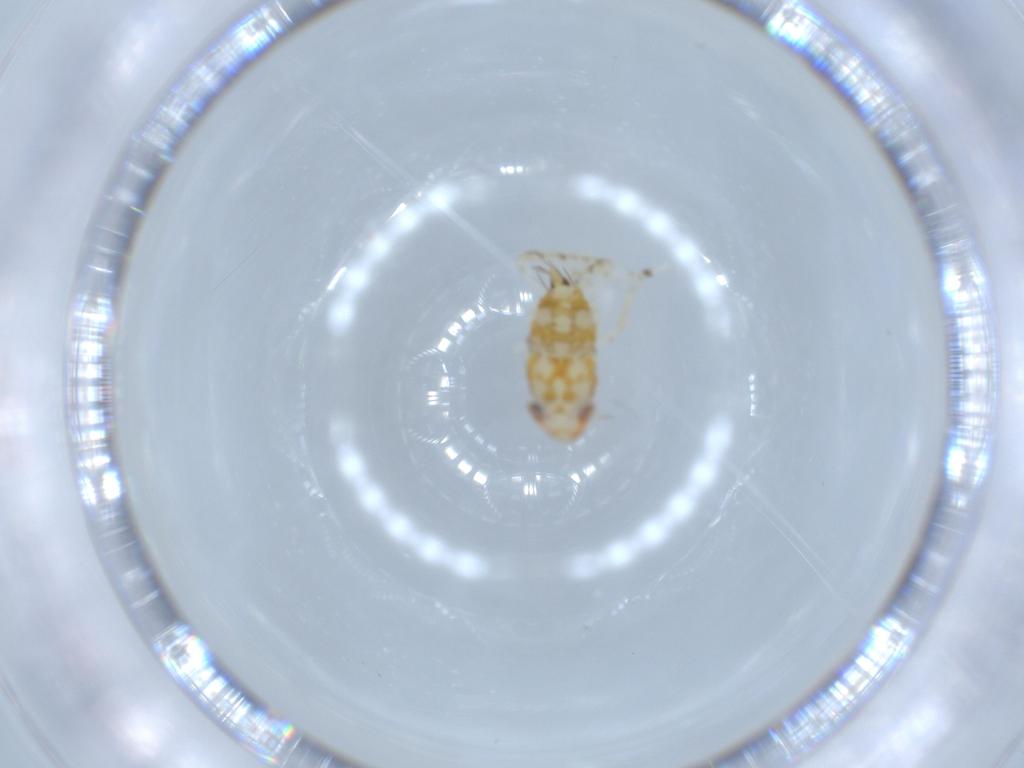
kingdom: Animalia
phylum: Arthropoda
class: Insecta
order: Hemiptera
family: Cicadellidae
